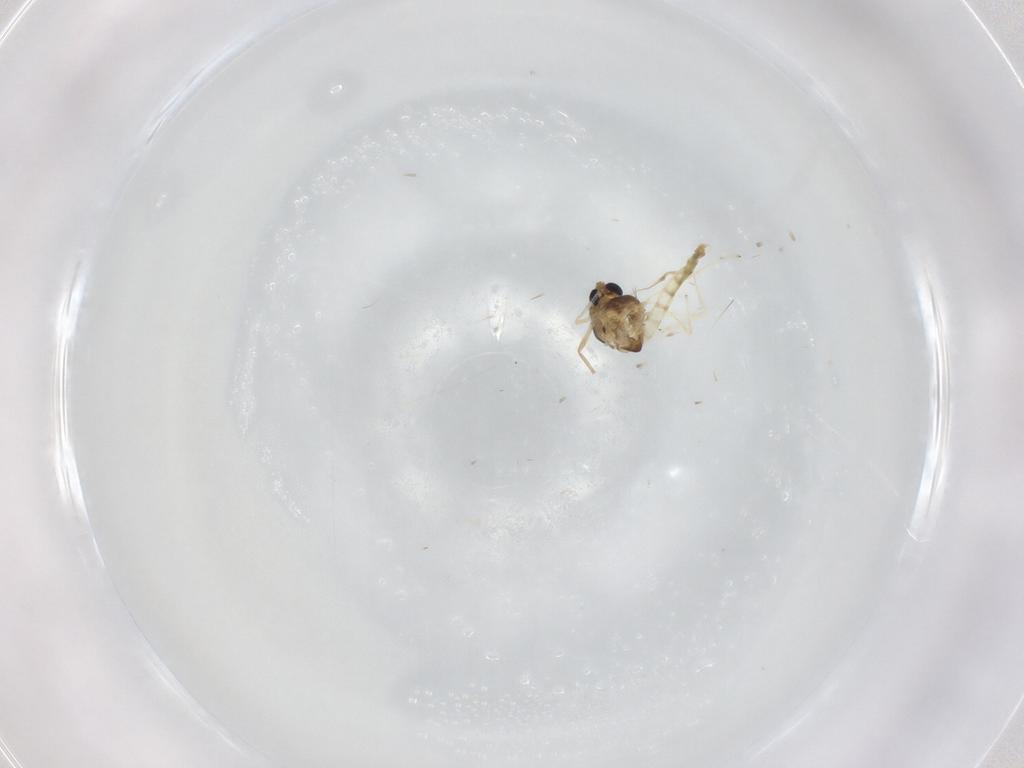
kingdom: Animalia
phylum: Arthropoda
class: Insecta
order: Diptera
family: Chironomidae
